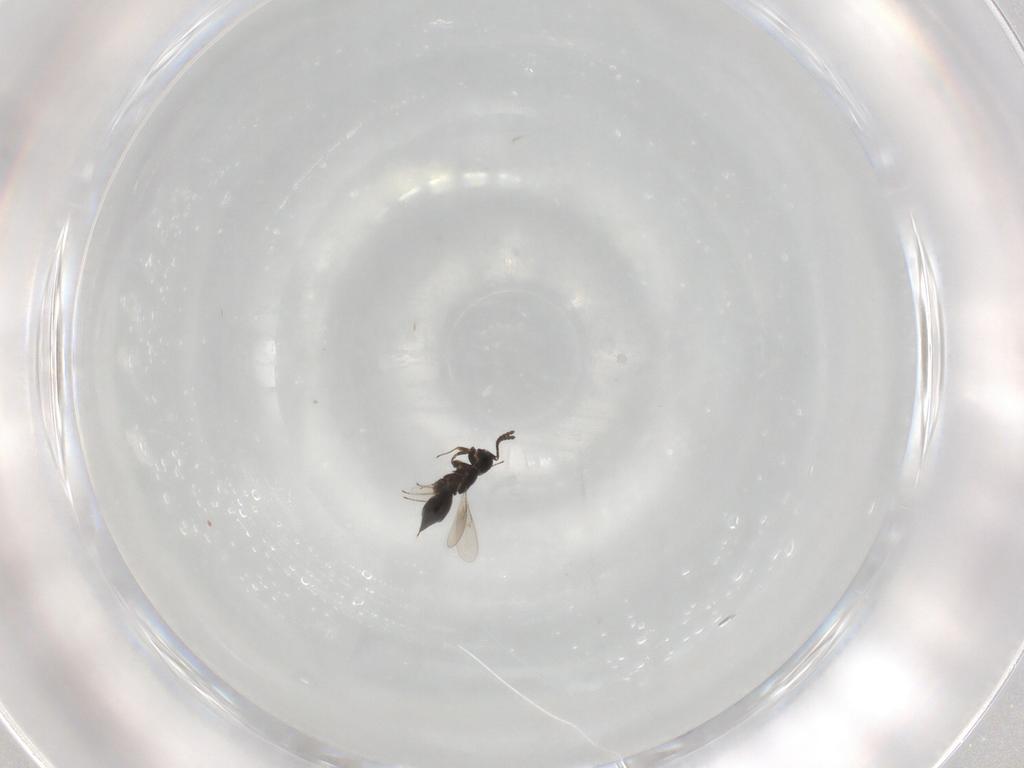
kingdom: Animalia
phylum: Arthropoda
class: Insecta
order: Hymenoptera
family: Scelionidae
